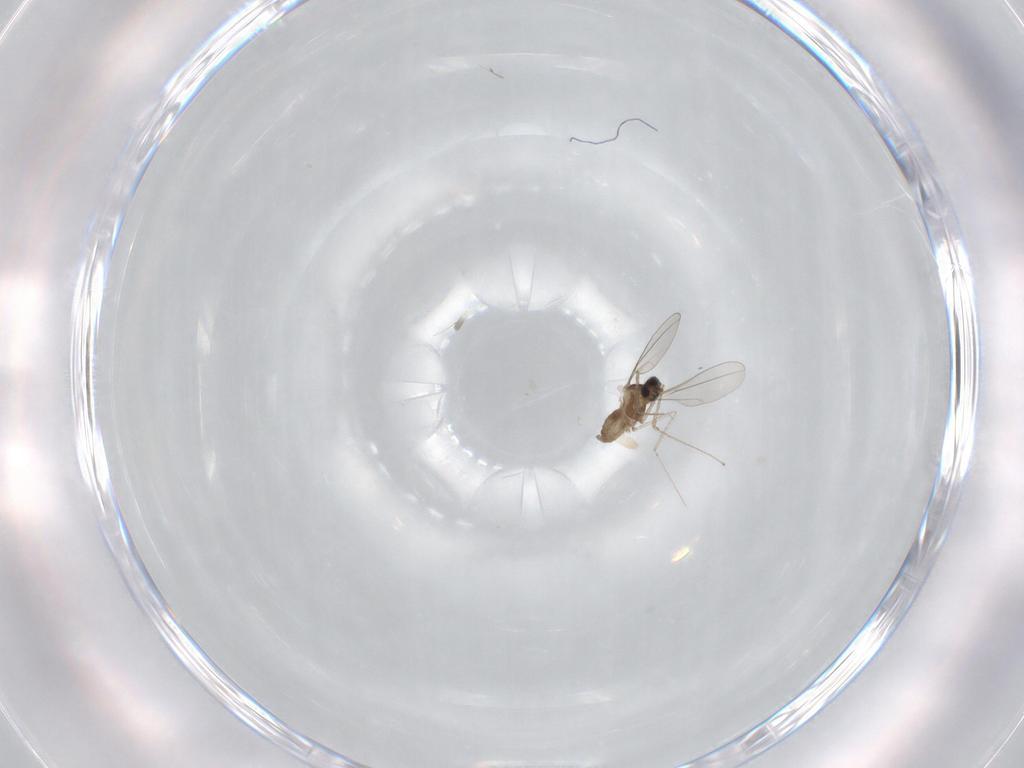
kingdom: Animalia
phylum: Arthropoda
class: Insecta
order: Diptera
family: Cecidomyiidae
